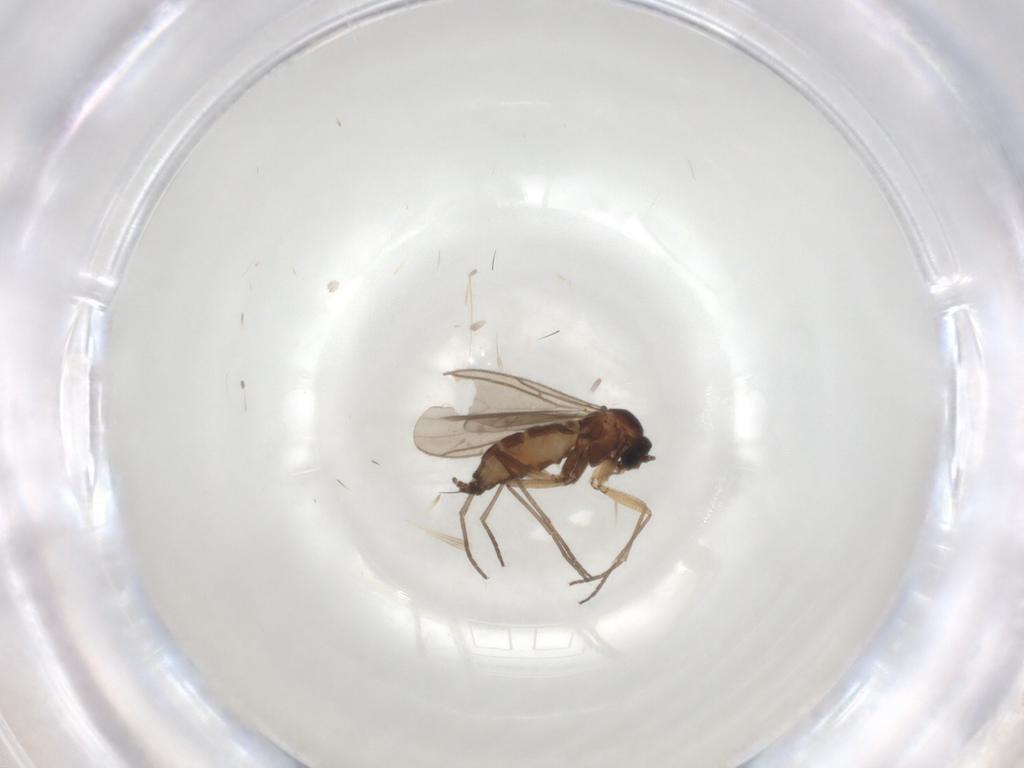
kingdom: Animalia
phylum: Arthropoda
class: Insecta
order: Diptera
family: Sciaridae
